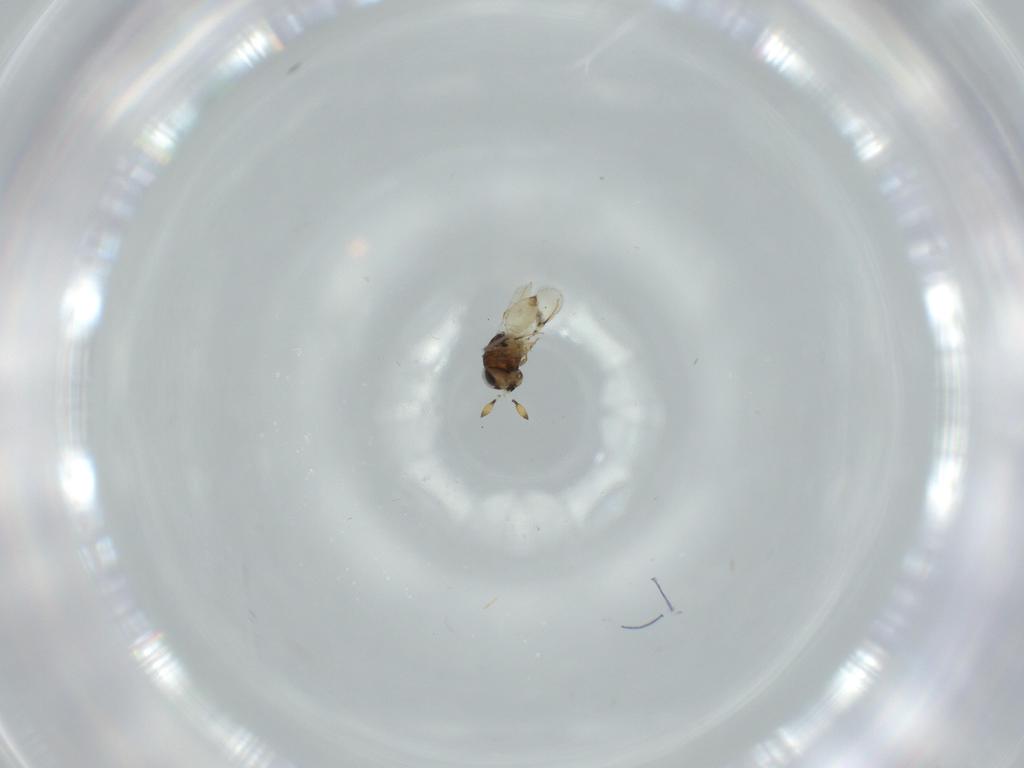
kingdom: Animalia
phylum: Arthropoda
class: Insecta
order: Hymenoptera
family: Scelionidae
